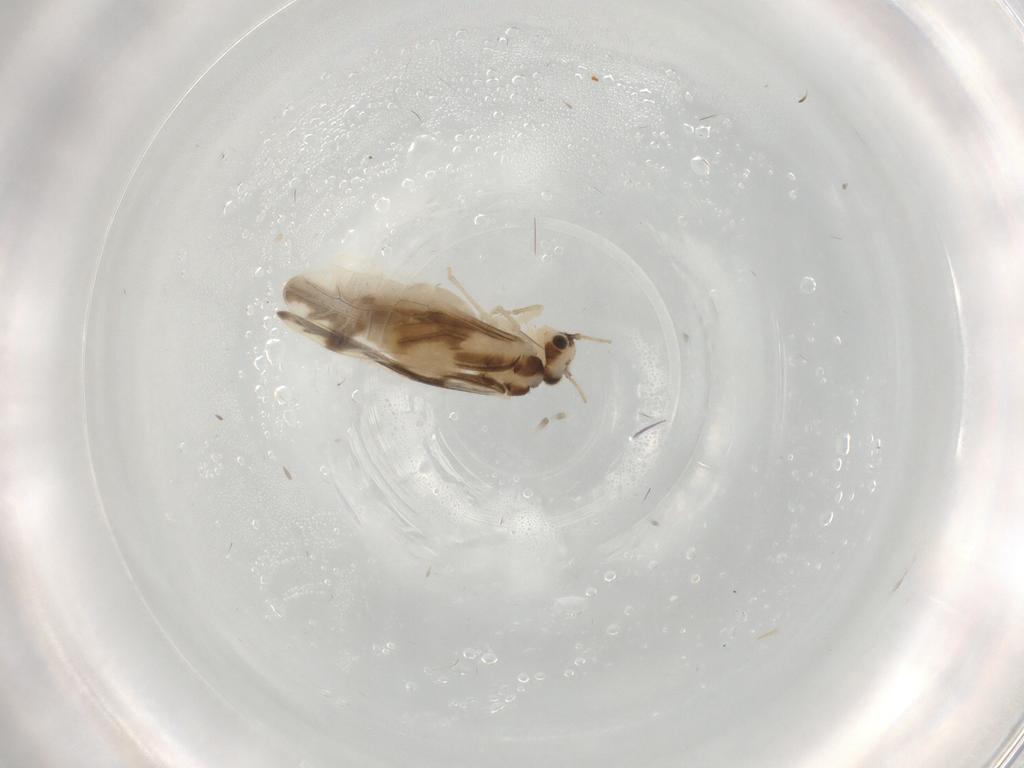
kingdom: Animalia
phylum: Arthropoda
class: Insecta
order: Psocodea
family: Caeciliusidae
